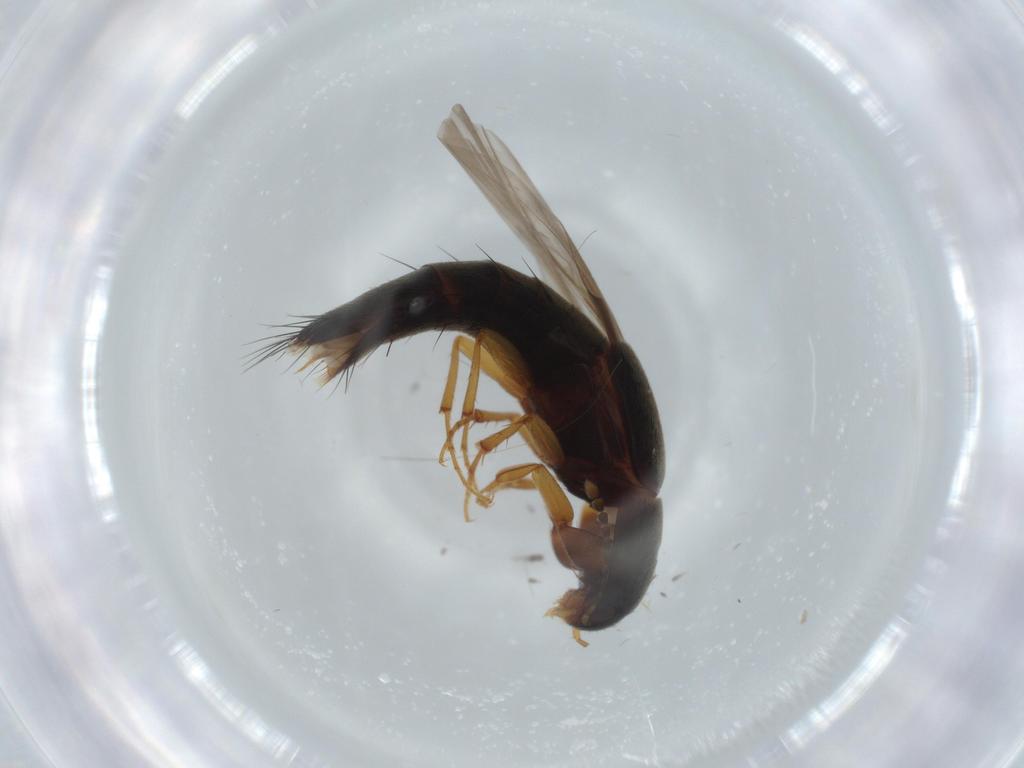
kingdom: Animalia
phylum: Arthropoda
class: Insecta
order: Coleoptera
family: Staphylinidae
